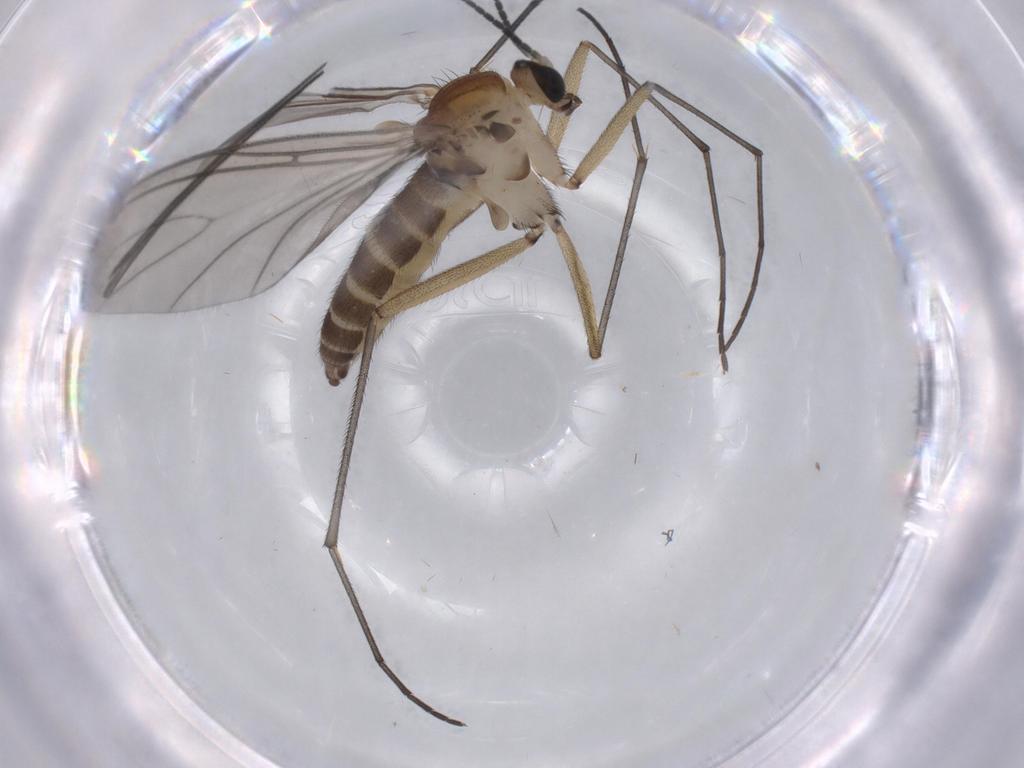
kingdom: Animalia
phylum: Arthropoda
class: Insecta
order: Diptera
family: Sciaridae
